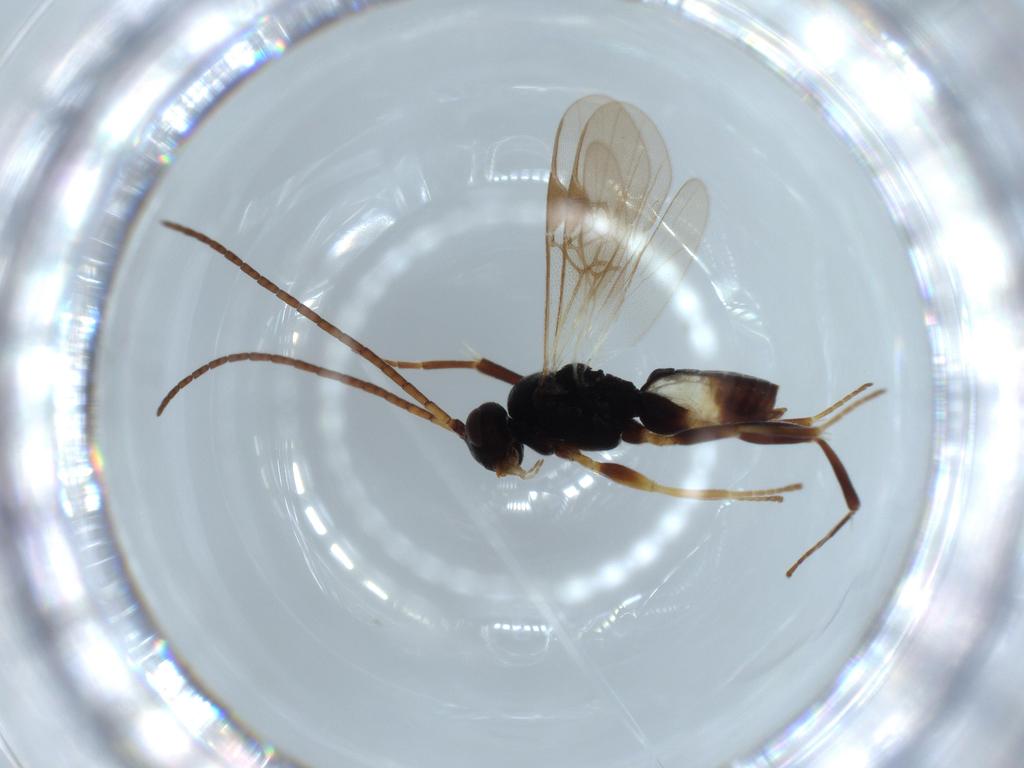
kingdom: Animalia
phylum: Arthropoda
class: Insecta
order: Hymenoptera
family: Braconidae
